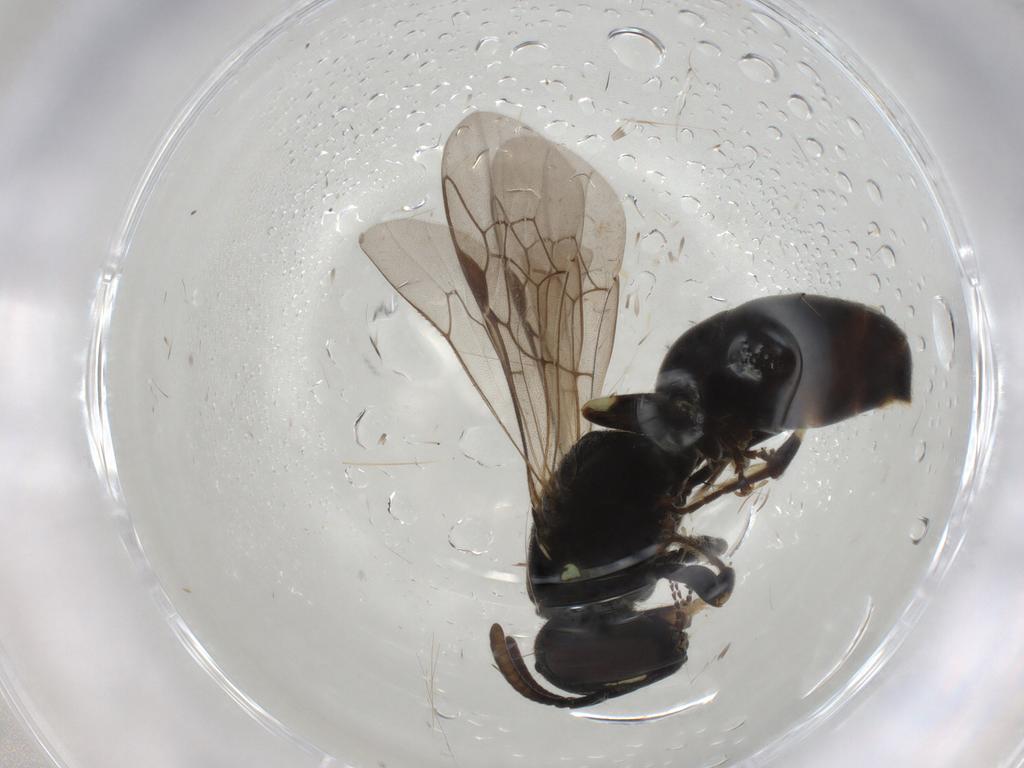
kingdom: Animalia
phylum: Arthropoda
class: Insecta
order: Hymenoptera
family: Colletidae
